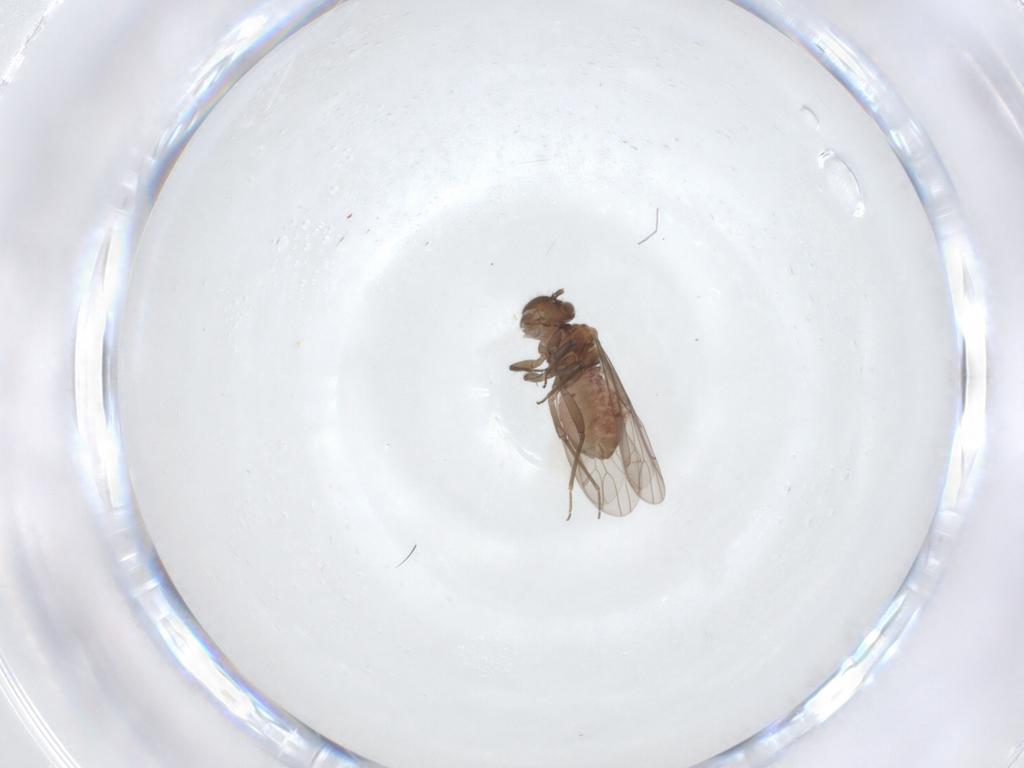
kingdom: Animalia
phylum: Arthropoda
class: Insecta
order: Psocodea
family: Ectopsocidae
